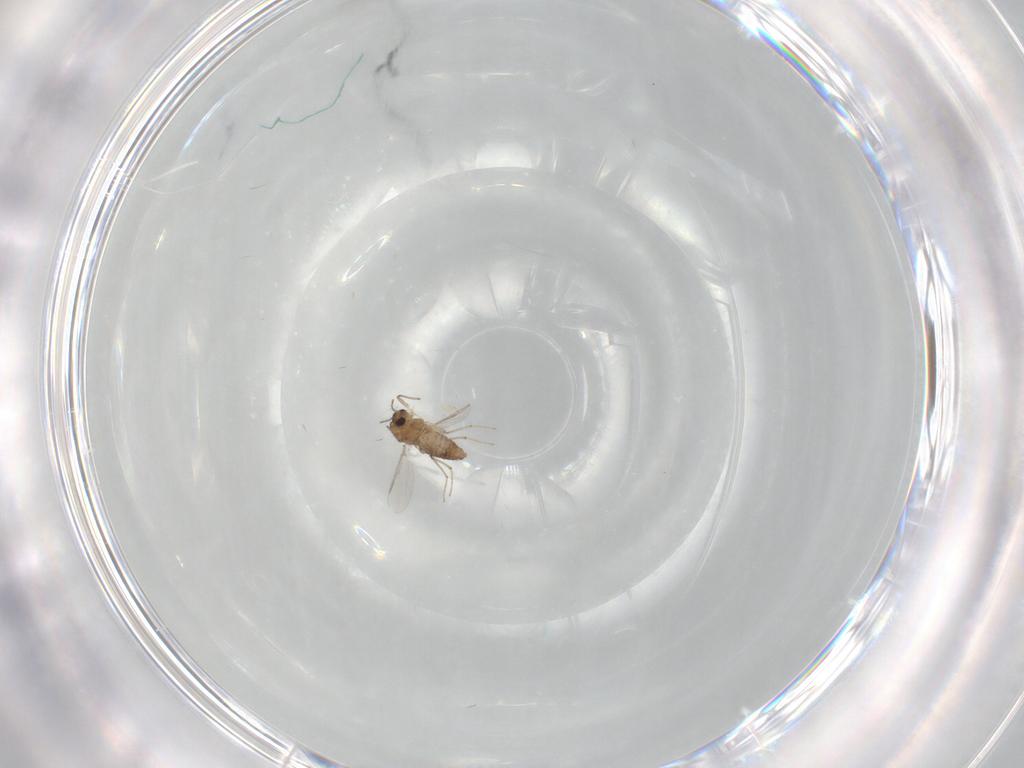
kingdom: Animalia
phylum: Arthropoda
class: Insecta
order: Diptera
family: Chironomidae
